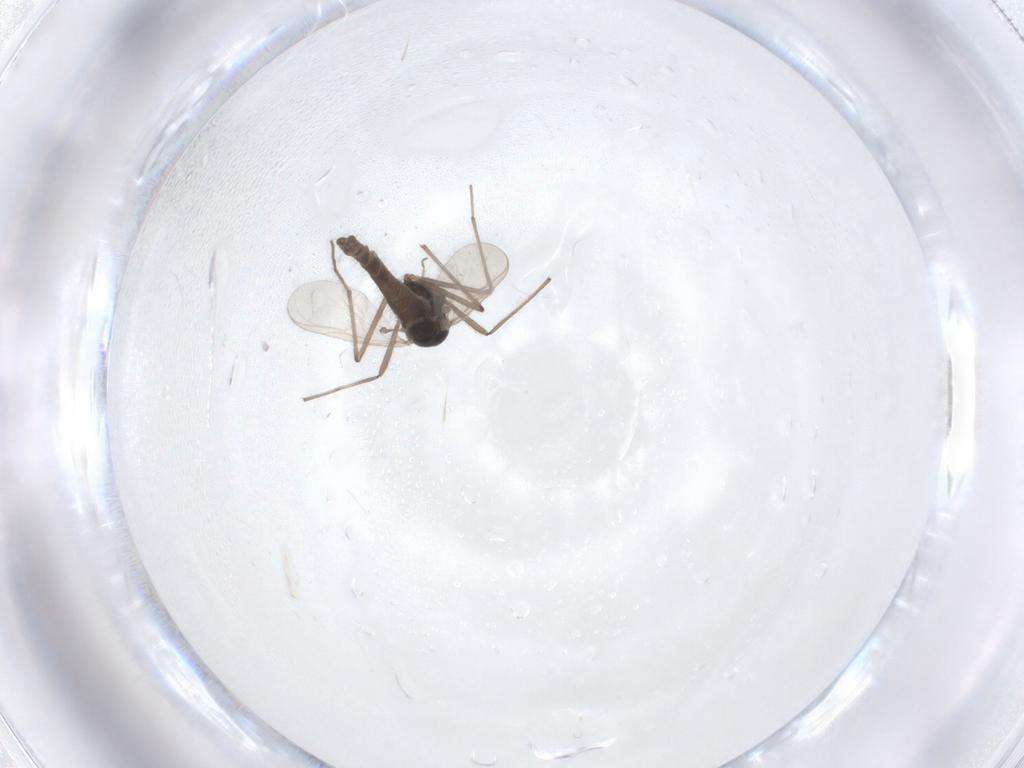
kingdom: Animalia
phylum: Arthropoda
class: Insecta
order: Diptera
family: Chironomidae
